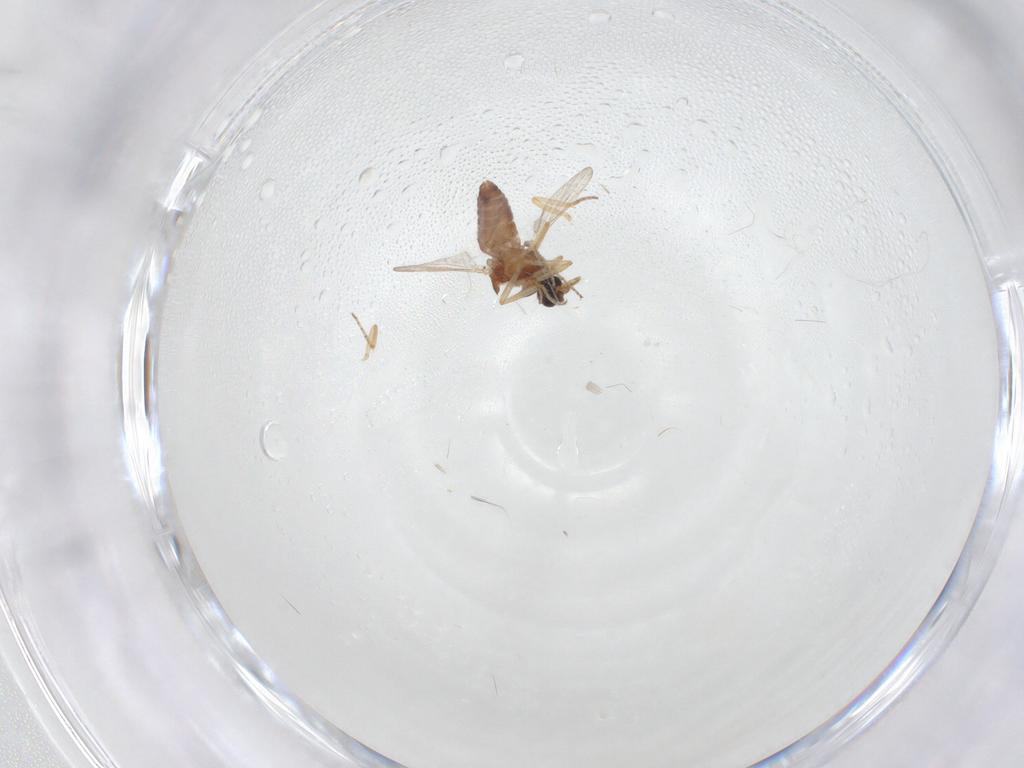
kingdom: Animalia
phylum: Arthropoda
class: Insecta
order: Diptera
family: Ceratopogonidae
